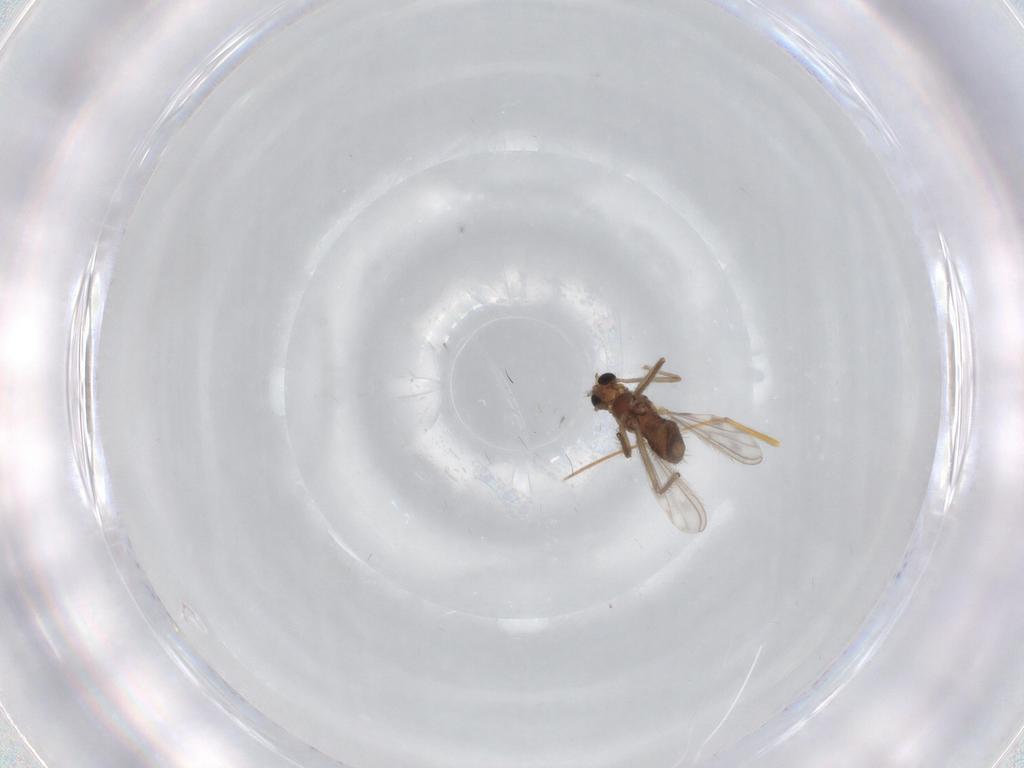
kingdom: Animalia
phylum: Arthropoda
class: Insecta
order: Diptera
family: Chironomidae
